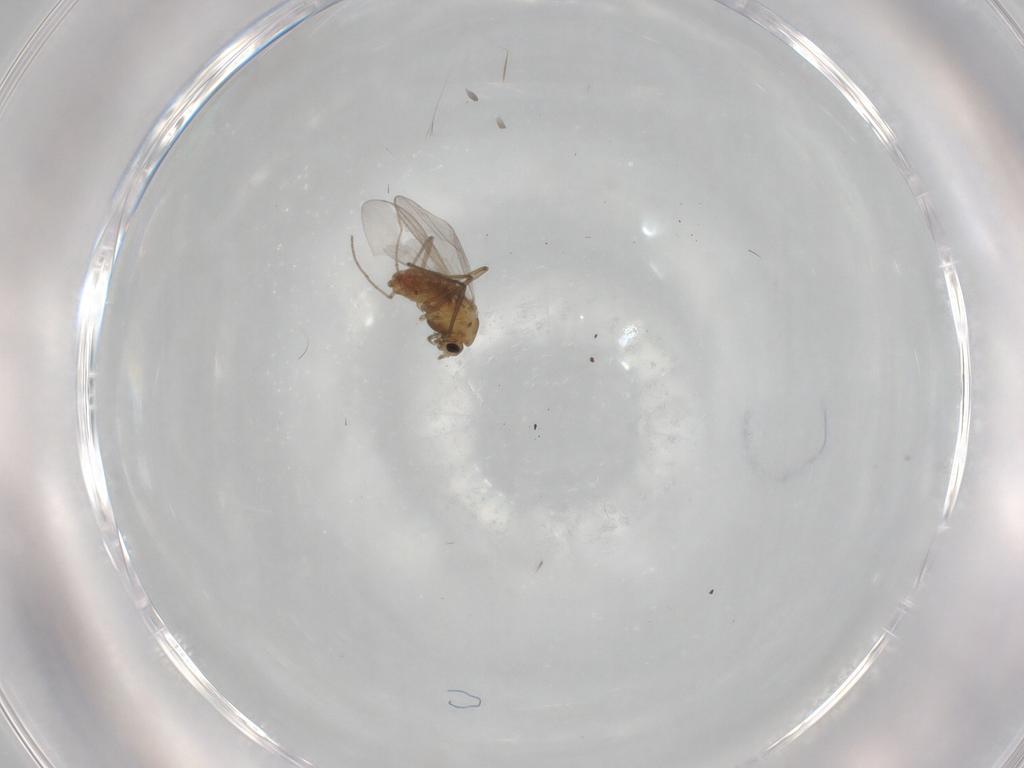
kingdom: Animalia
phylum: Arthropoda
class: Insecta
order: Diptera
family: Chironomidae
